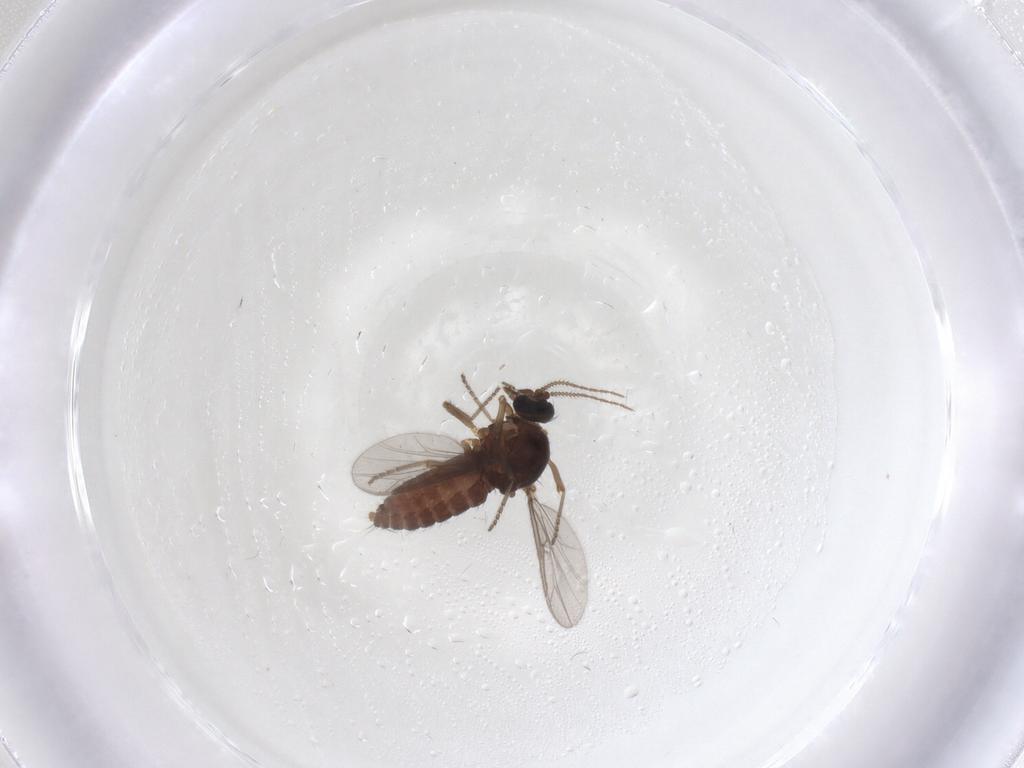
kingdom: Animalia
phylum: Arthropoda
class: Insecta
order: Diptera
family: Ceratopogonidae
